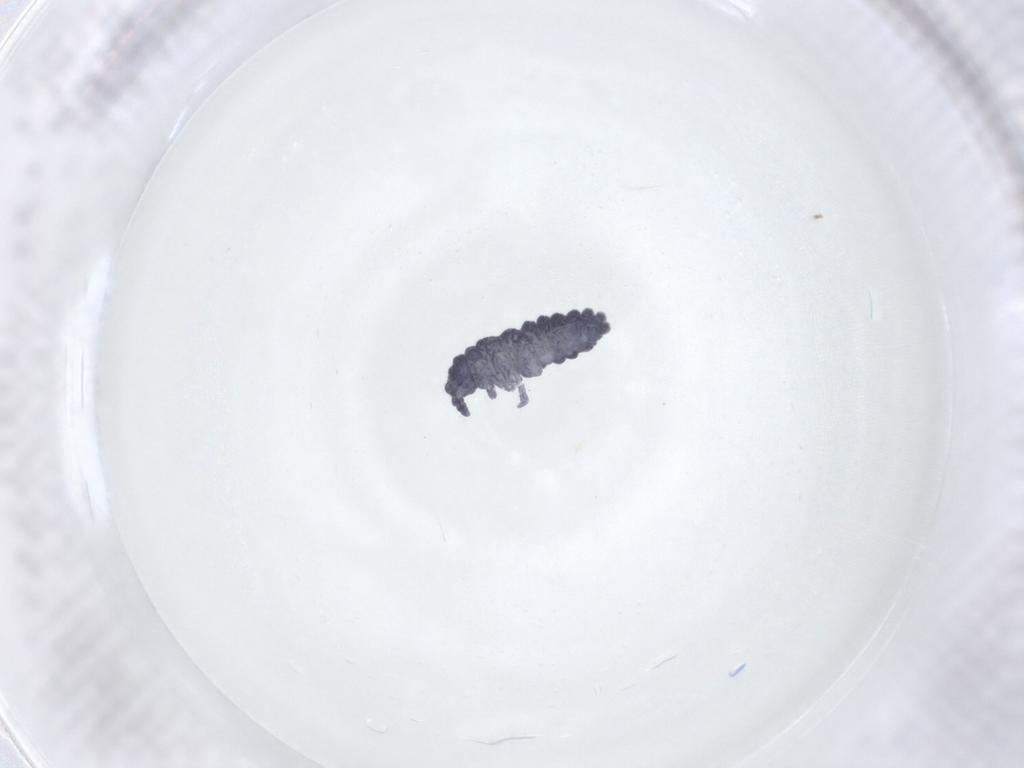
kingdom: Animalia
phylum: Arthropoda
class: Collembola
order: Poduromorpha
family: Neanuridae
